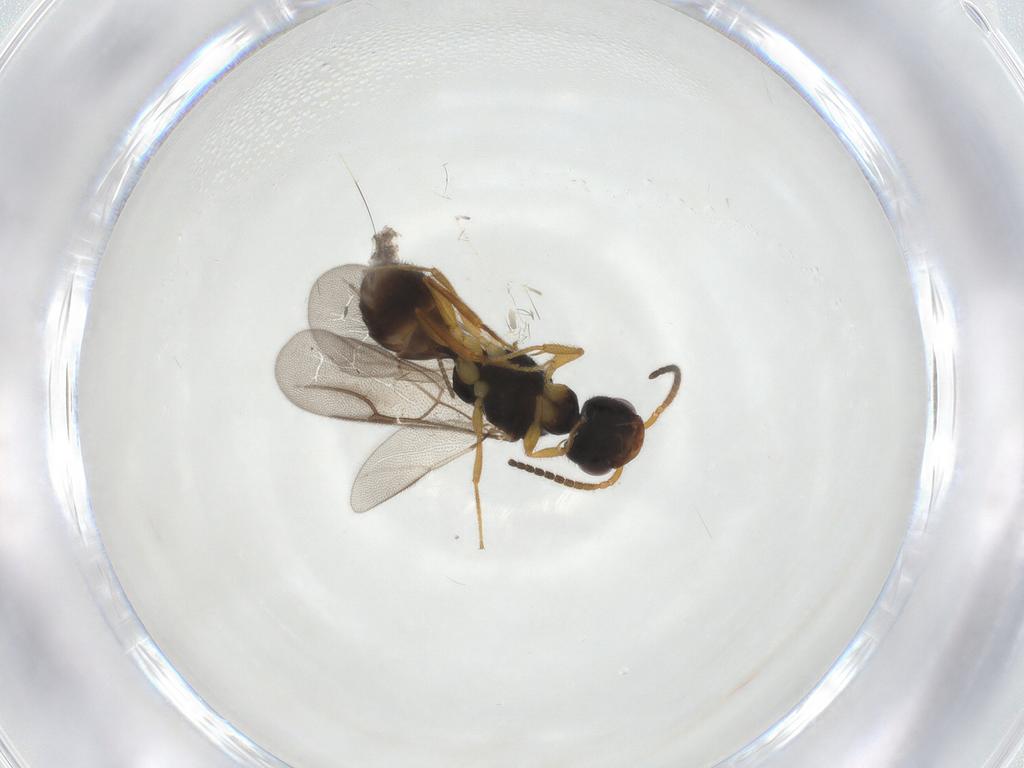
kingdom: Animalia
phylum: Arthropoda
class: Insecta
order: Hymenoptera
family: Bethylidae
